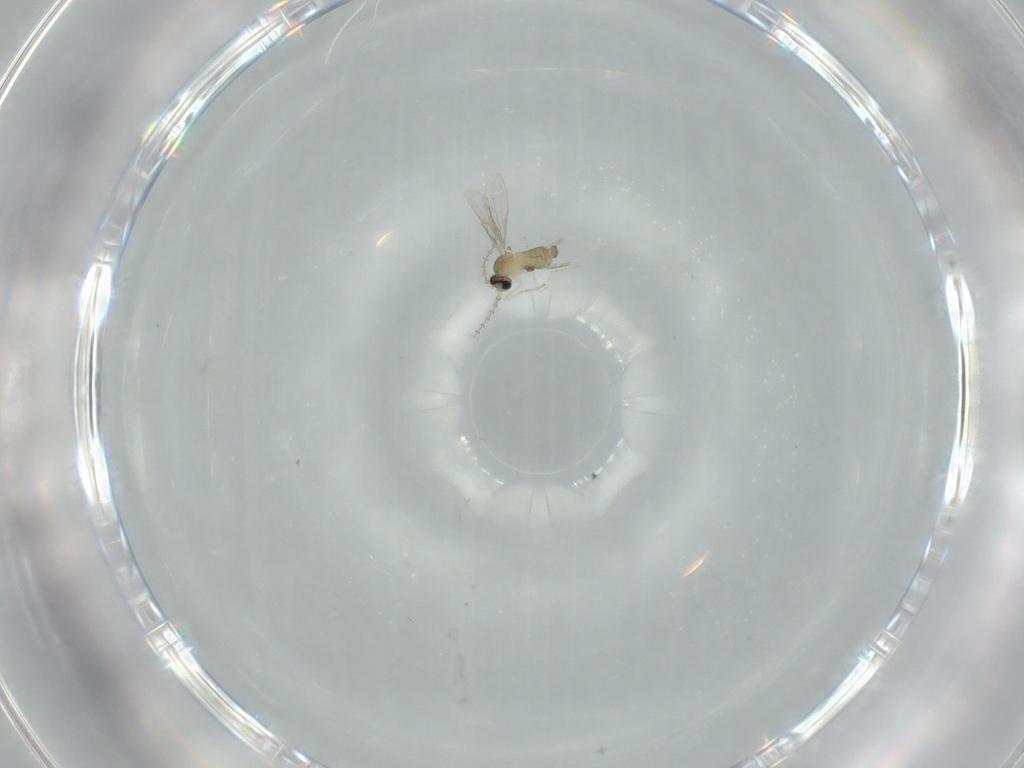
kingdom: Animalia
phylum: Arthropoda
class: Insecta
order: Diptera
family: Cecidomyiidae
